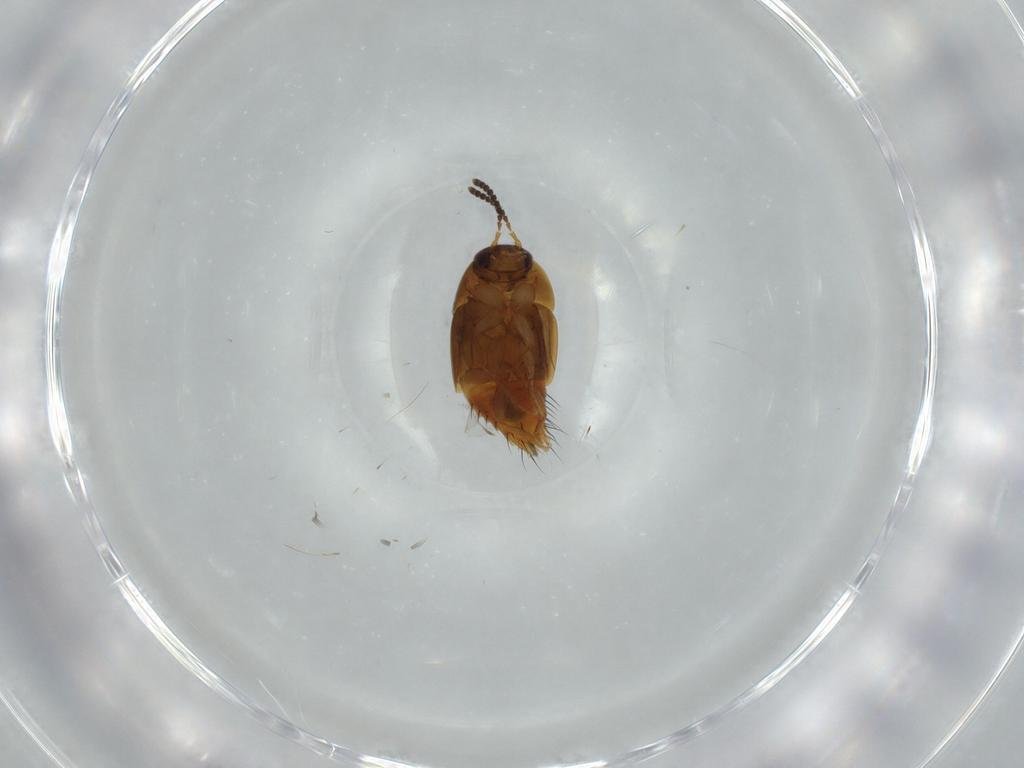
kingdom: Animalia
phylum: Arthropoda
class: Insecta
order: Coleoptera
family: Staphylinidae
